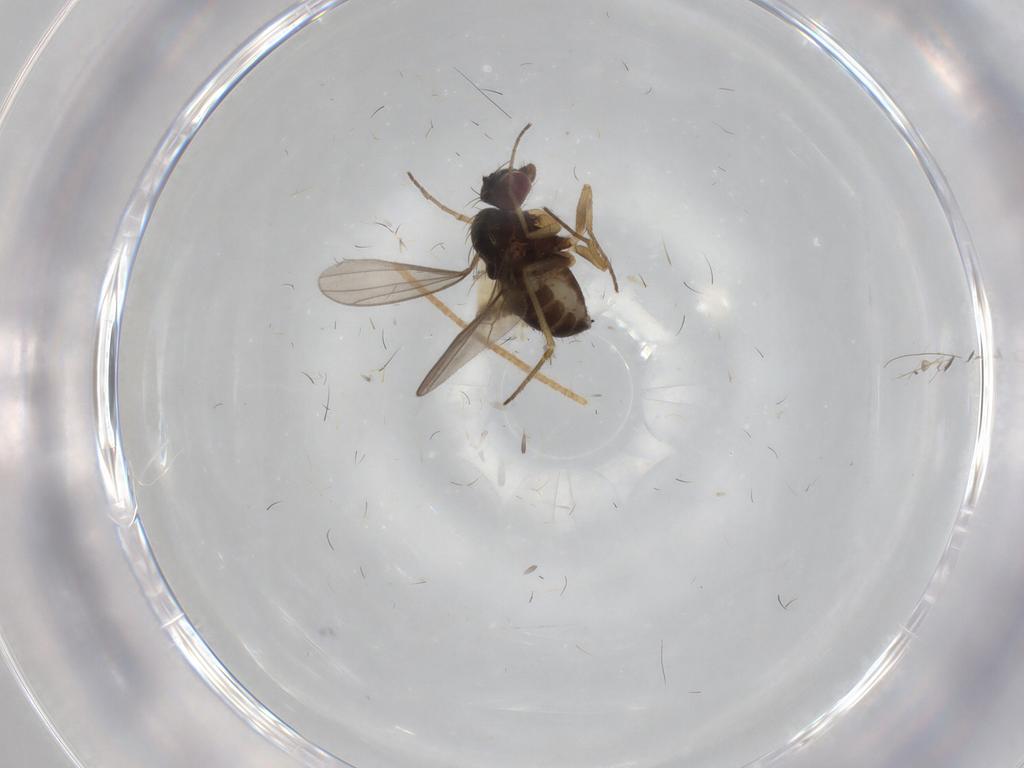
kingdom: Animalia
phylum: Arthropoda
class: Insecta
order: Diptera
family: Dolichopodidae
